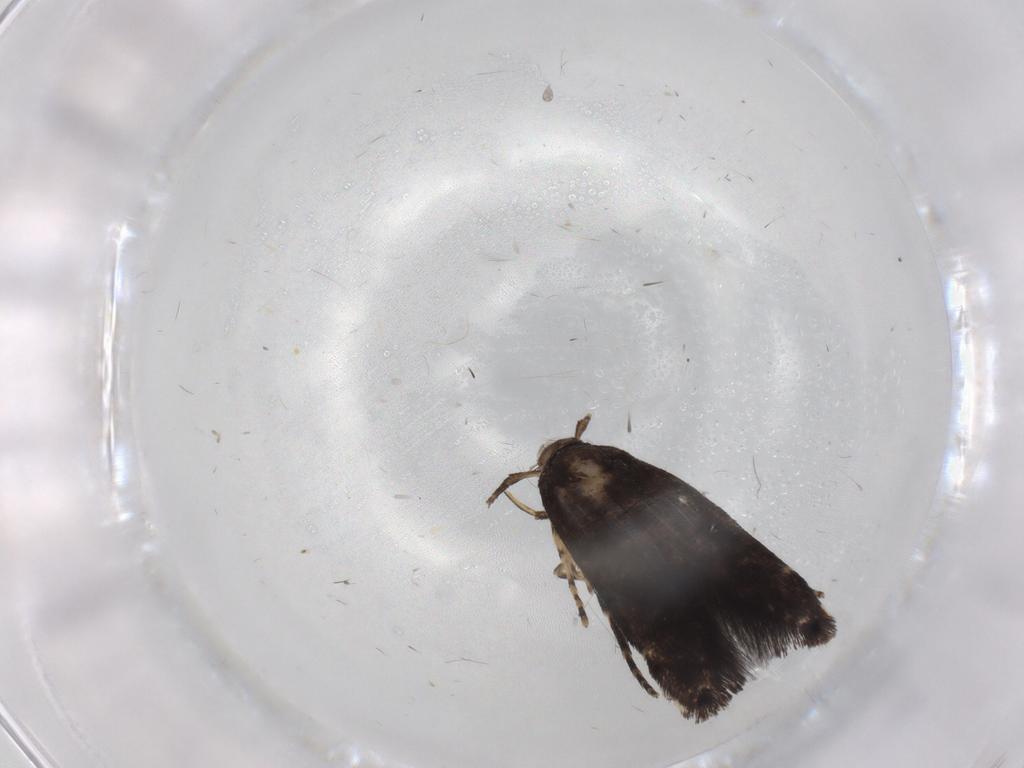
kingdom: Animalia
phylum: Arthropoda
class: Insecta
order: Lepidoptera
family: Cosmopterigidae
